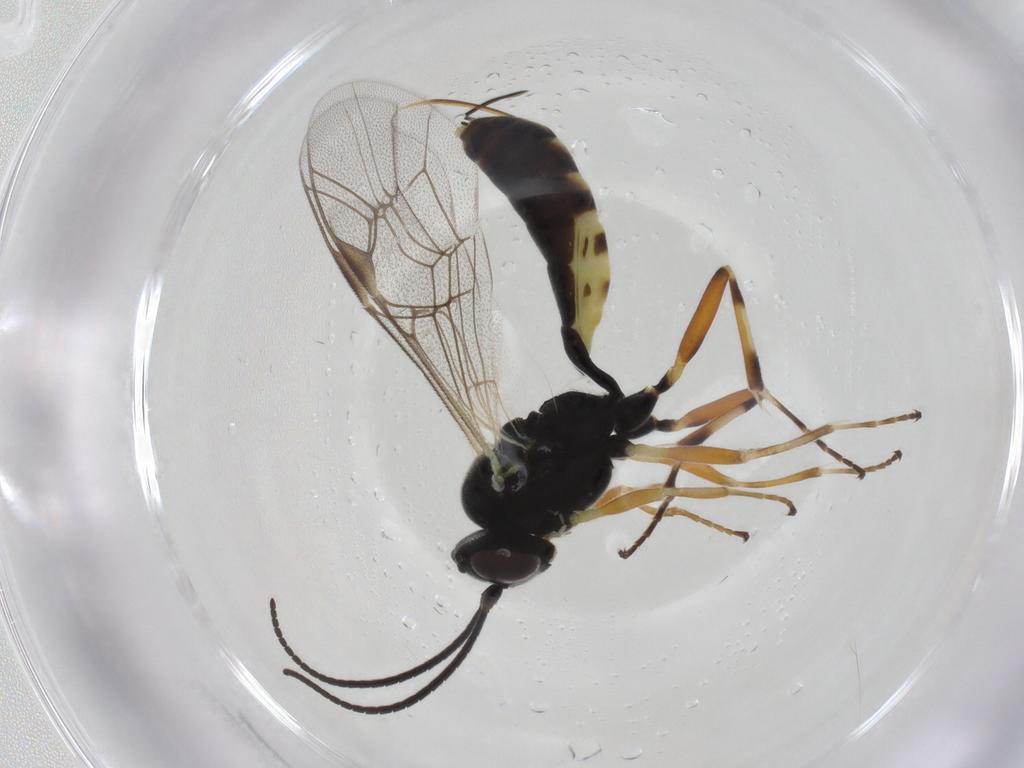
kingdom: Animalia
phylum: Arthropoda
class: Insecta
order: Hymenoptera
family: Ichneumonidae
